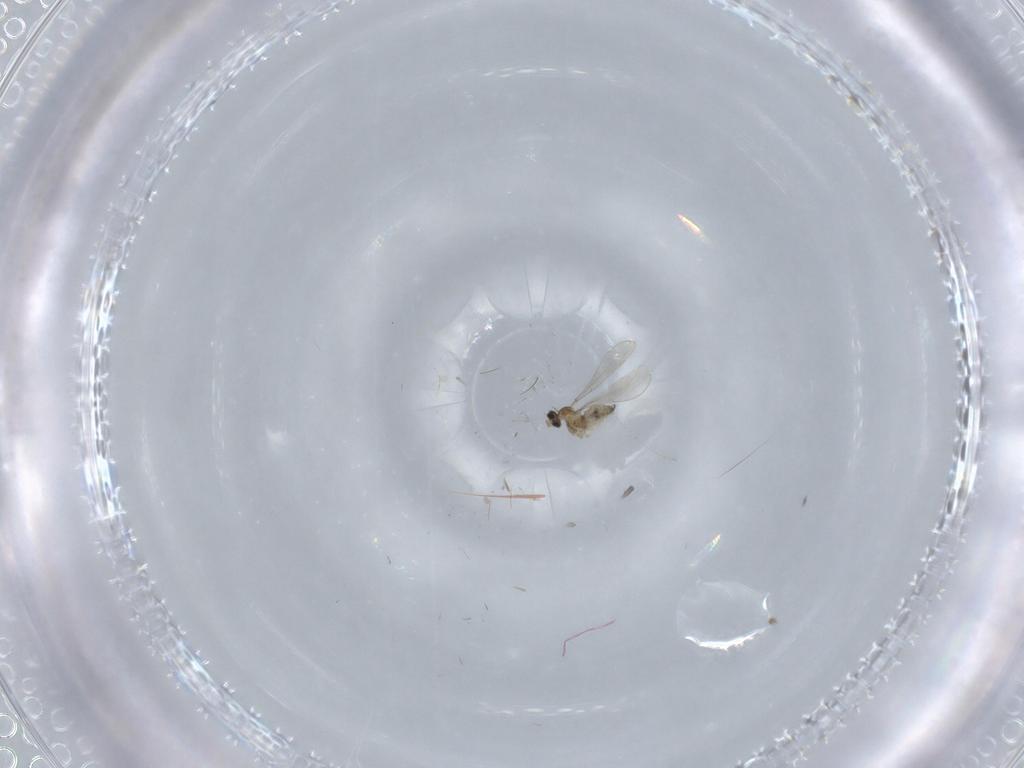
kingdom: Animalia
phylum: Arthropoda
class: Insecta
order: Diptera
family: Cecidomyiidae
